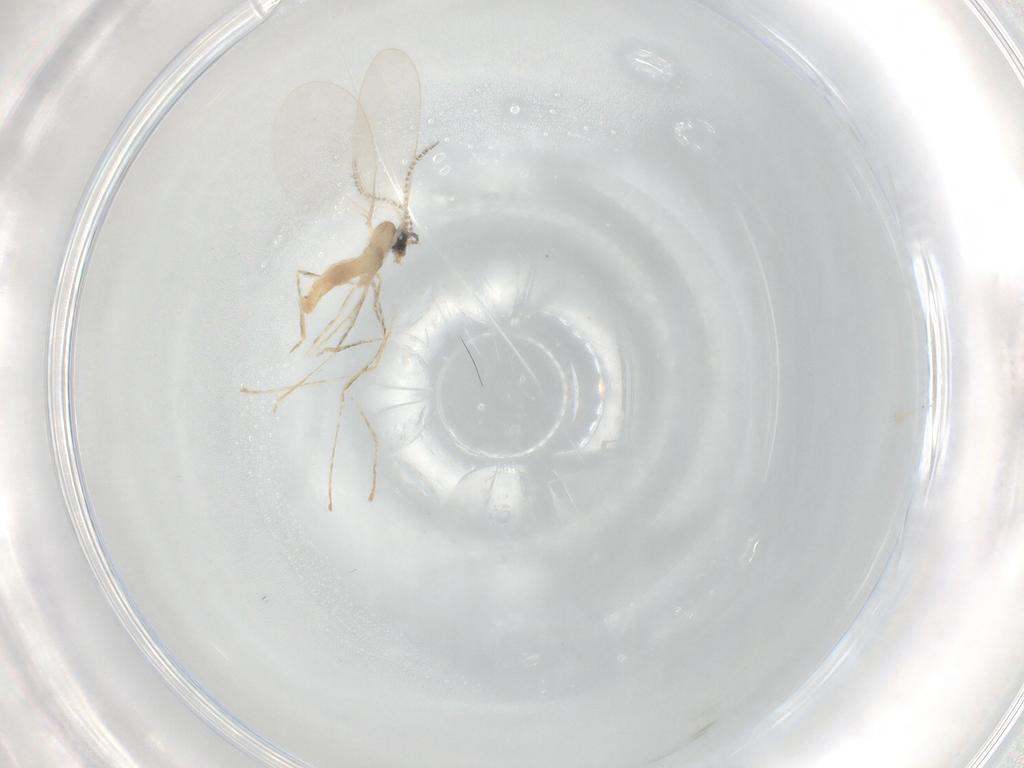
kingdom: Animalia
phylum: Arthropoda
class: Insecta
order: Diptera
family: Cecidomyiidae
